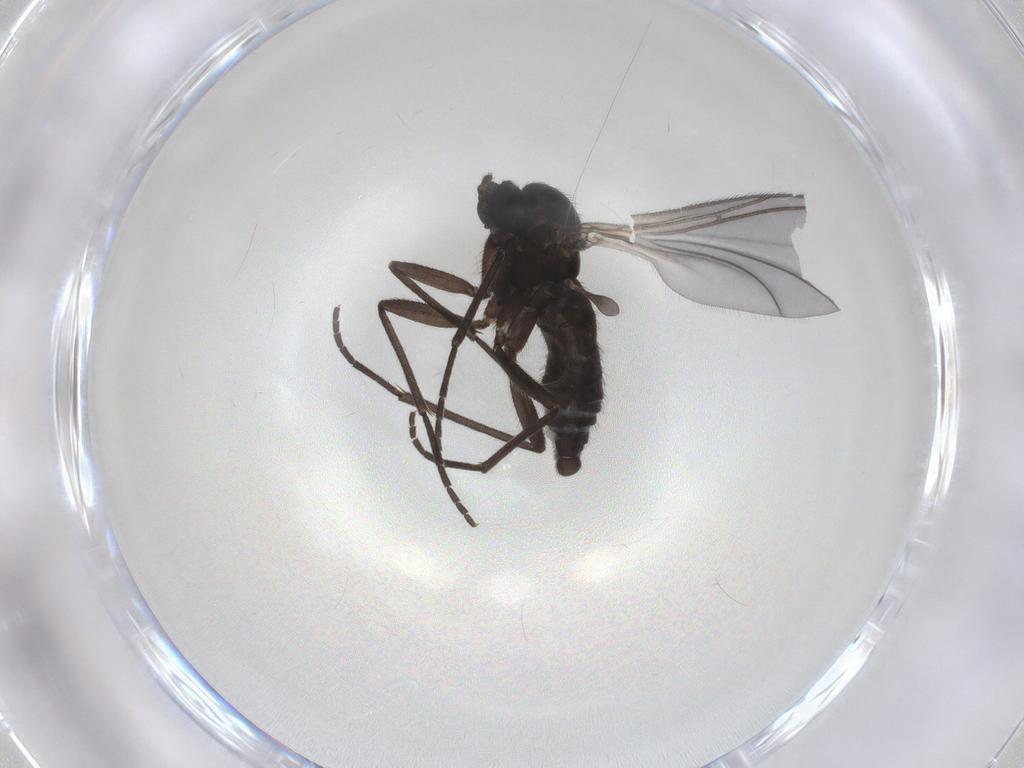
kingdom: Animalia
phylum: Arthropoda
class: Insecta
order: Diptera
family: Sciaridae
